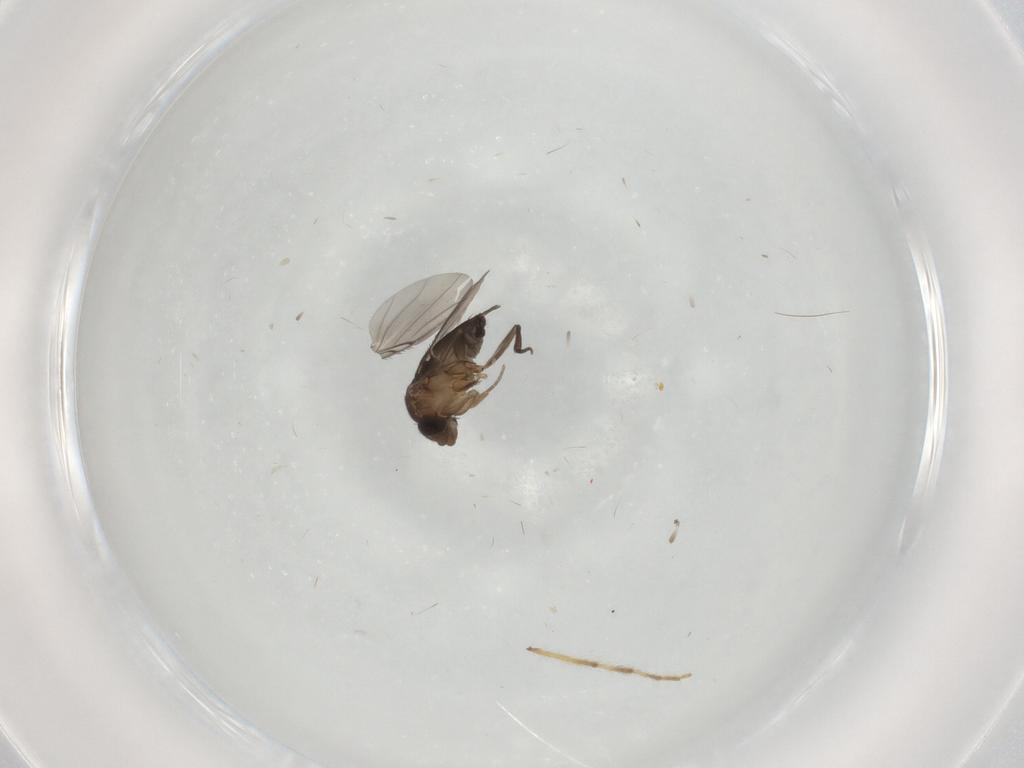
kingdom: Animalia
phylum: Arthropoda
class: Insecta
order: Diptera
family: Phoridae
